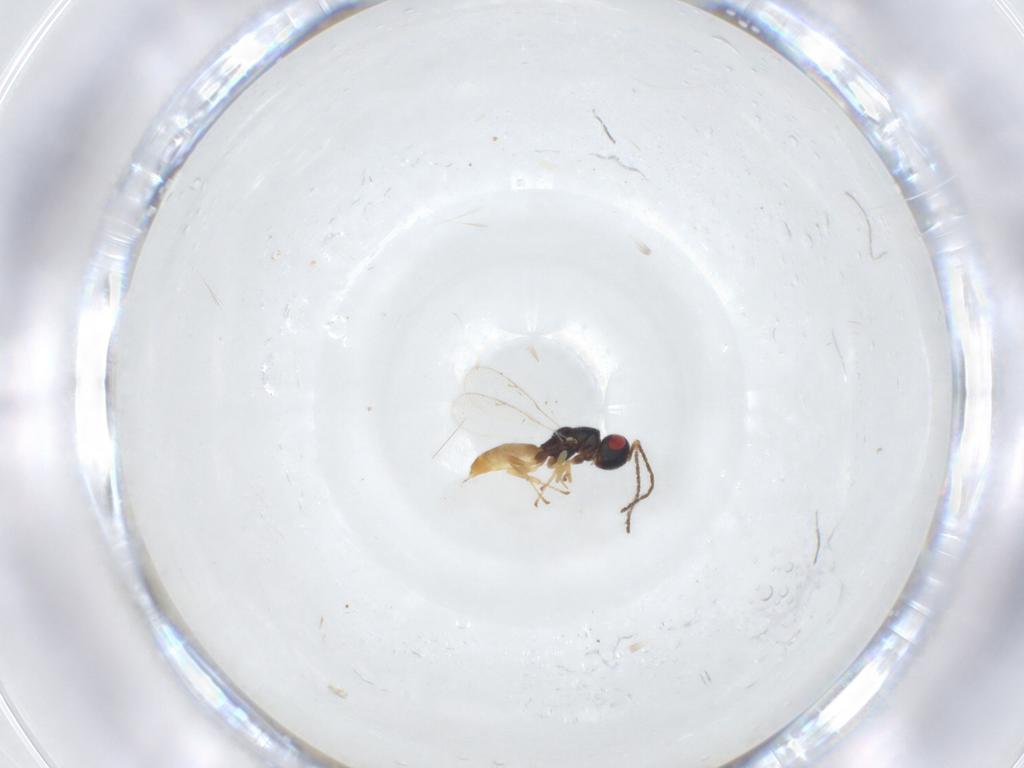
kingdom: Animalia
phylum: Arthropoda
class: Insecta
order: Hymenoptera
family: Pteromalidae
